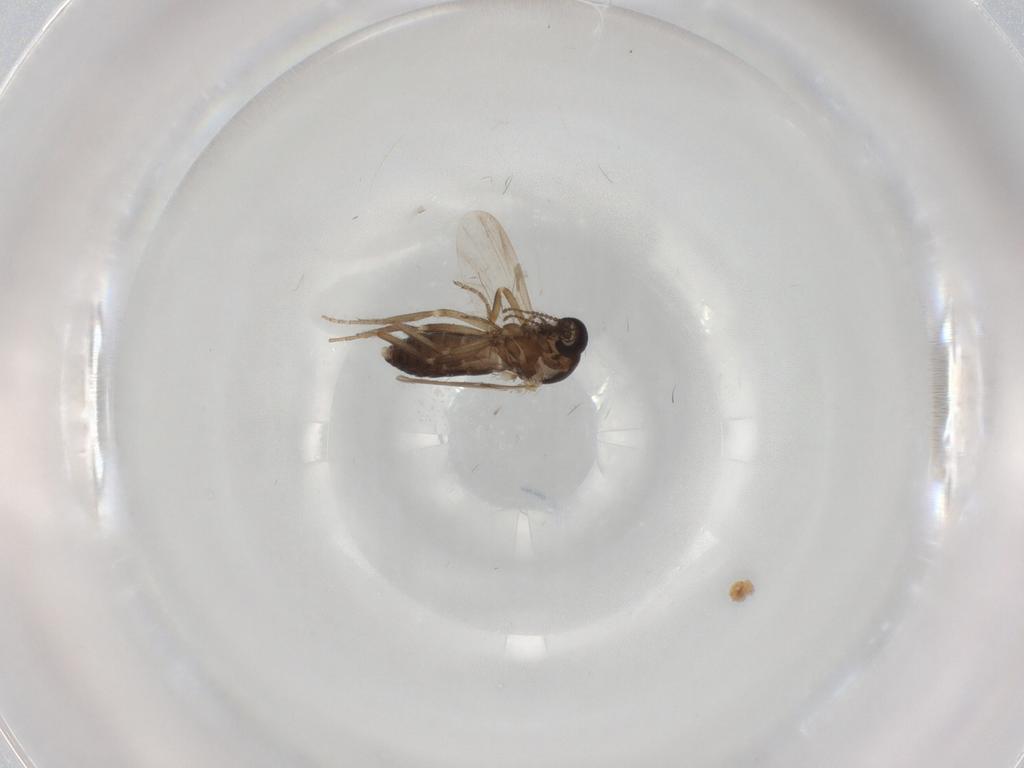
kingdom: Animalia
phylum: Arthropoda
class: Insecta
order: Diptera
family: Ceratopogonidae
